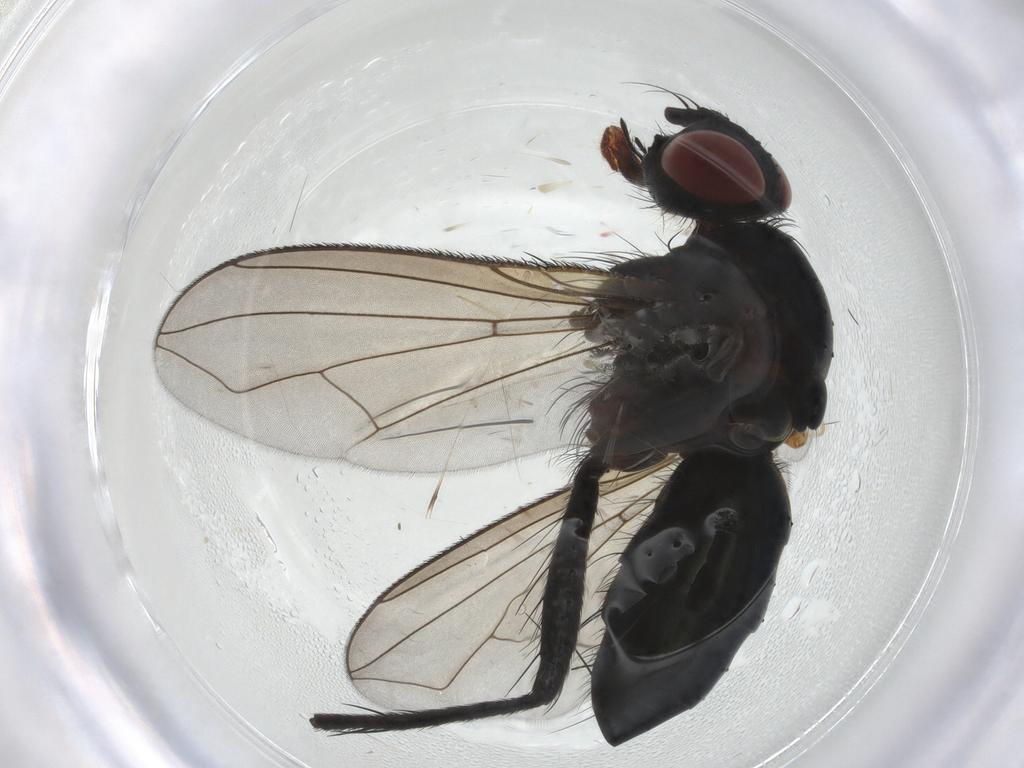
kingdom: Animalia
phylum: Arthropoda
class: Insecta
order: Diptera
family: Tachinidae
